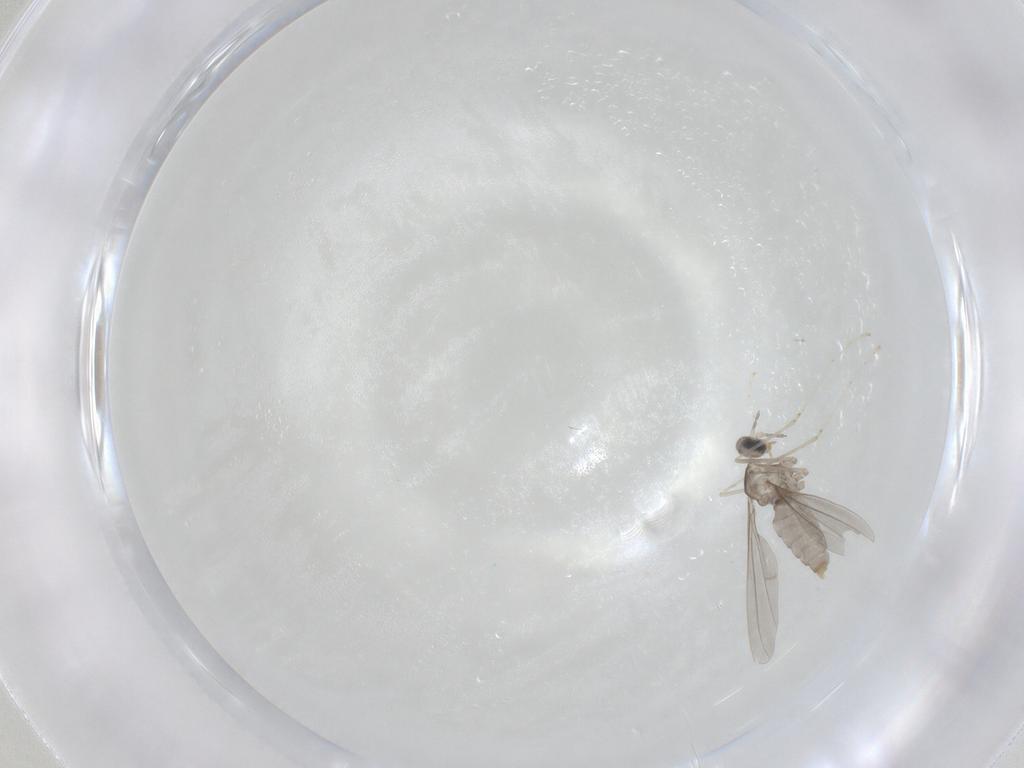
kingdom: Animalia
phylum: Arthropoda
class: Insecta
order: Diptera
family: Cecidomyiidae
